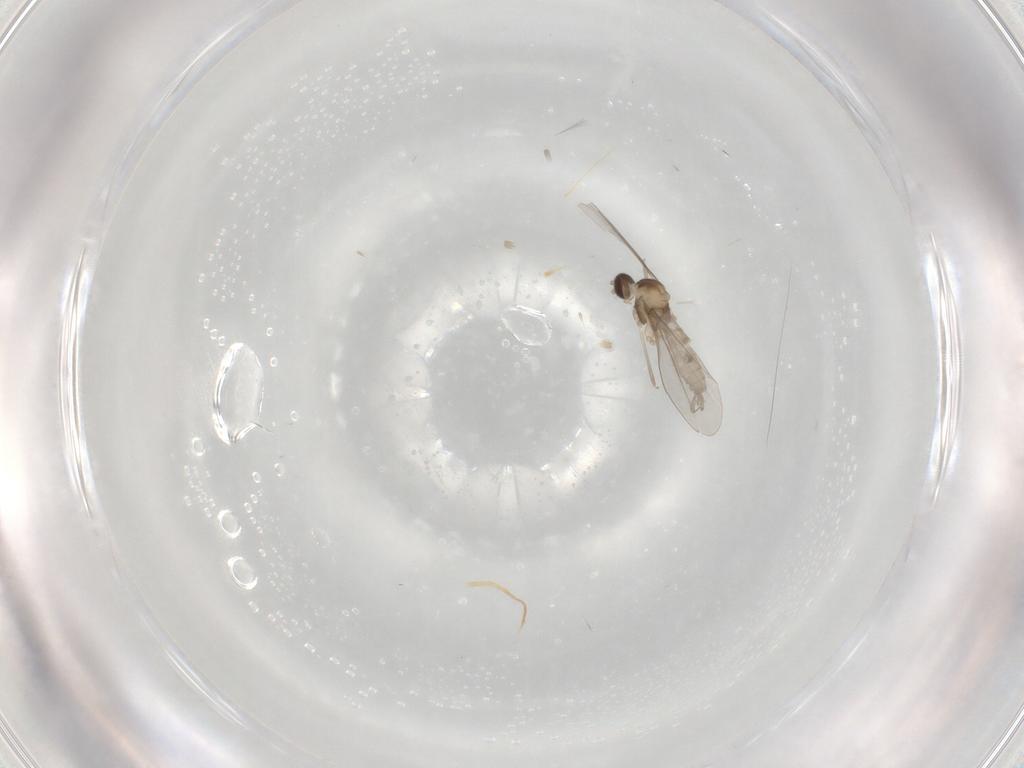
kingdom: Animalia
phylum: Arthropoda
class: Insecta
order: Diptera
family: Cecidomyiidae
